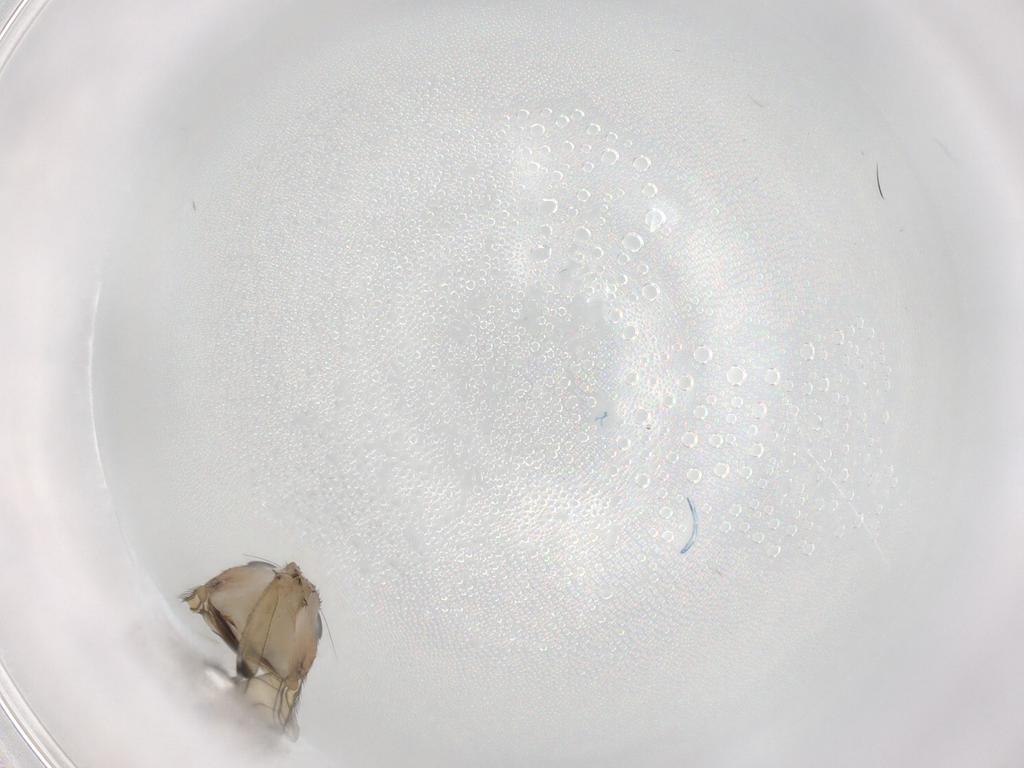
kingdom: Animalia
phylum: Arthropoda
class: Insecta
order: Diptera
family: Phoridae
